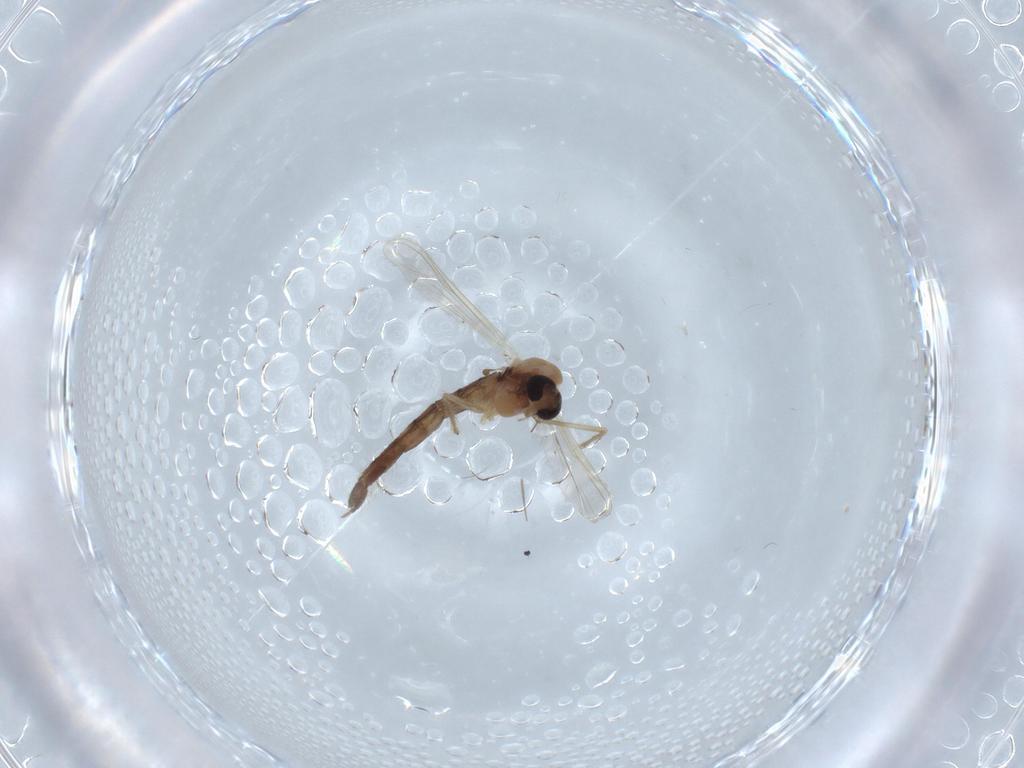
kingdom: Animalia
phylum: Arthropoda
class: Insecta
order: Diptera
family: Chironomidae
